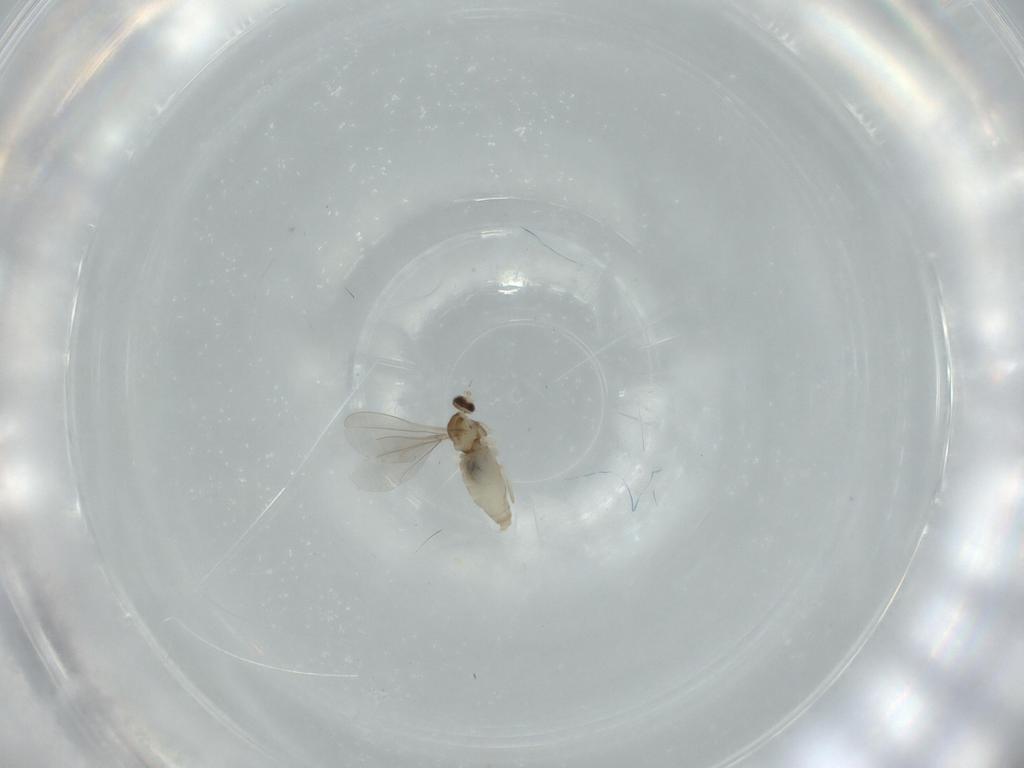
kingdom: Animalia
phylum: Arthropoda
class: Insecta
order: Diptera
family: Cecidomyiidae
